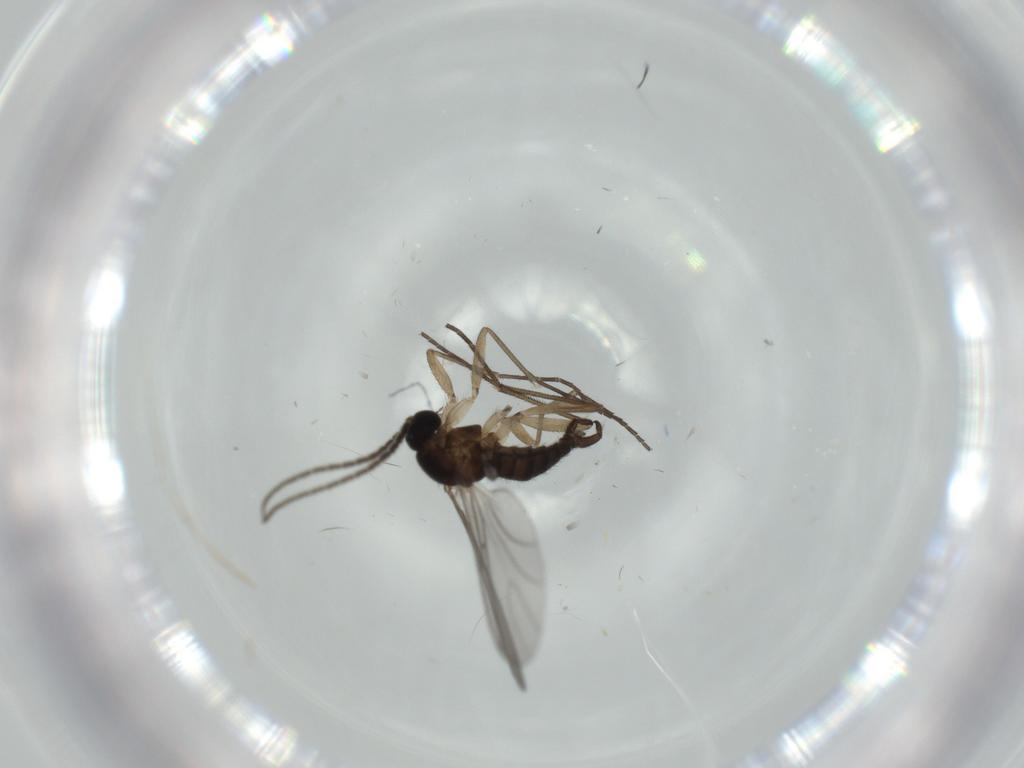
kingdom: Animalia
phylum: Arthropoda
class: Insecta
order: Diptera
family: Sciaridae
